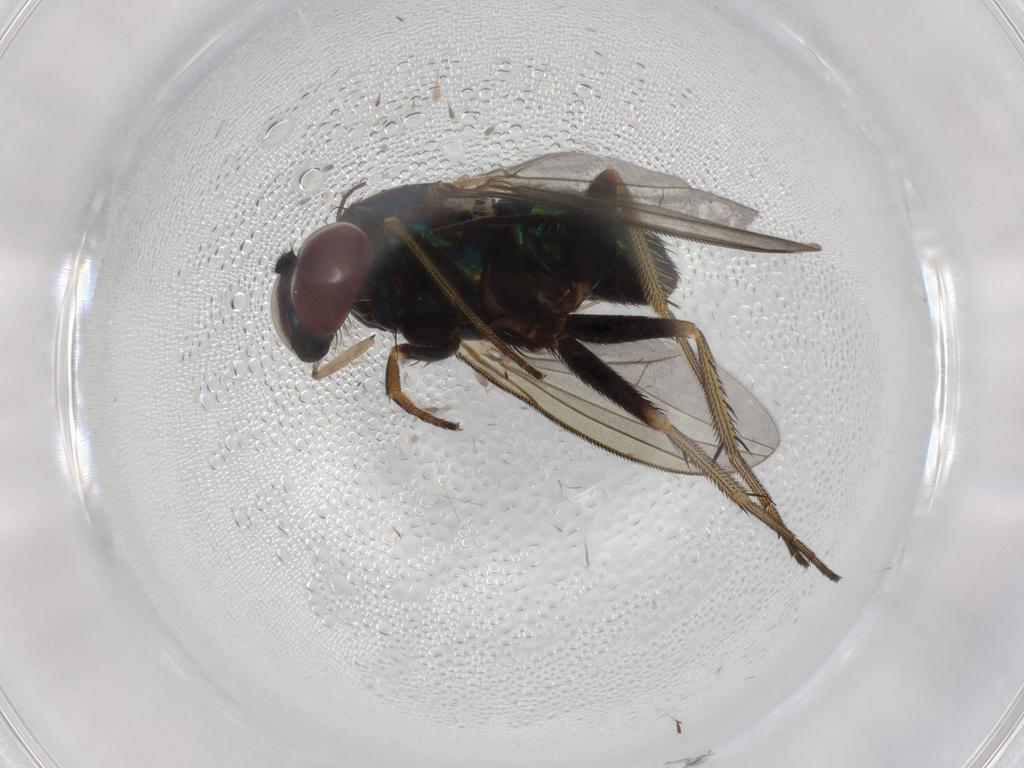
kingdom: Animalia
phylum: Arthropoda
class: Insecta
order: Diptera
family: Dolichopodidae
